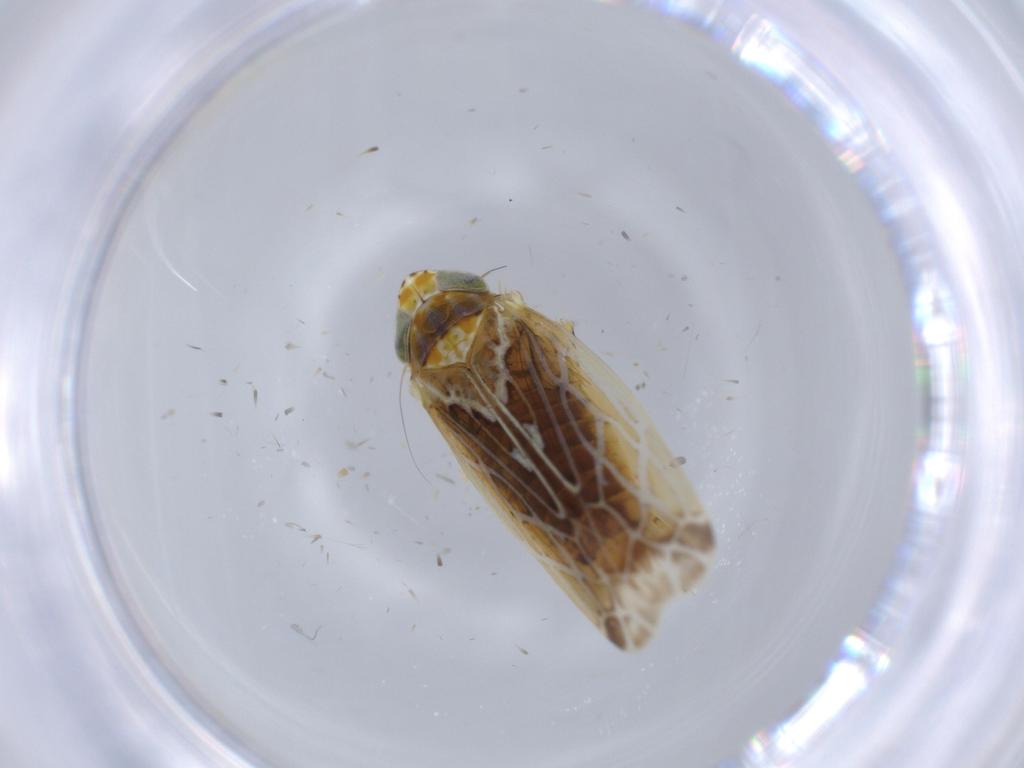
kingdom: Animalia
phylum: Arthropoda
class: Insecta
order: Hemiptera
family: Cicadellidae
